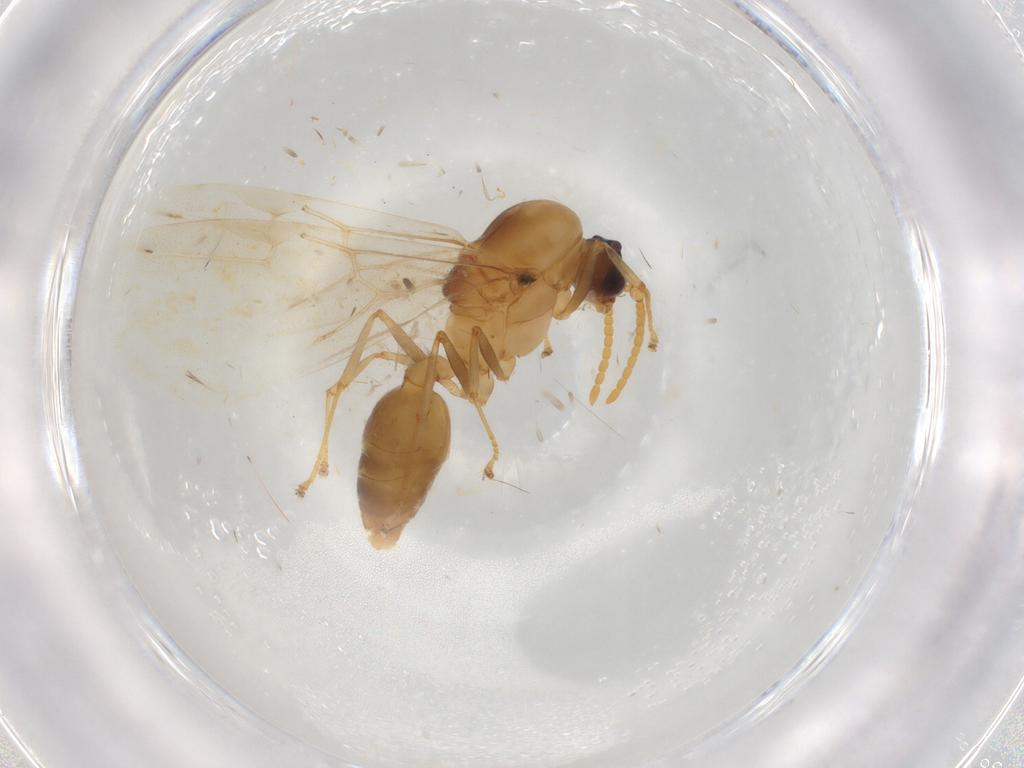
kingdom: Animalia
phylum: Arthropoda
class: Insecta
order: Hymenoptera
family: Formicidae
